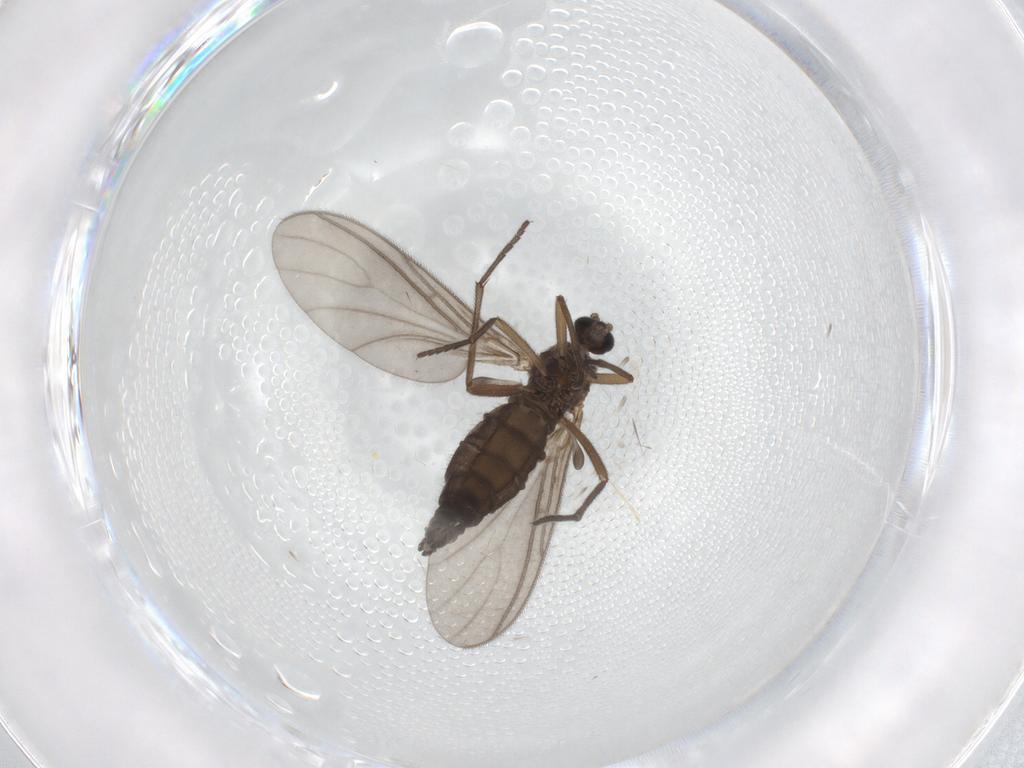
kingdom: Animalia
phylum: Arthropoda
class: Insecta
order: Diptera
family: Sciaridae
